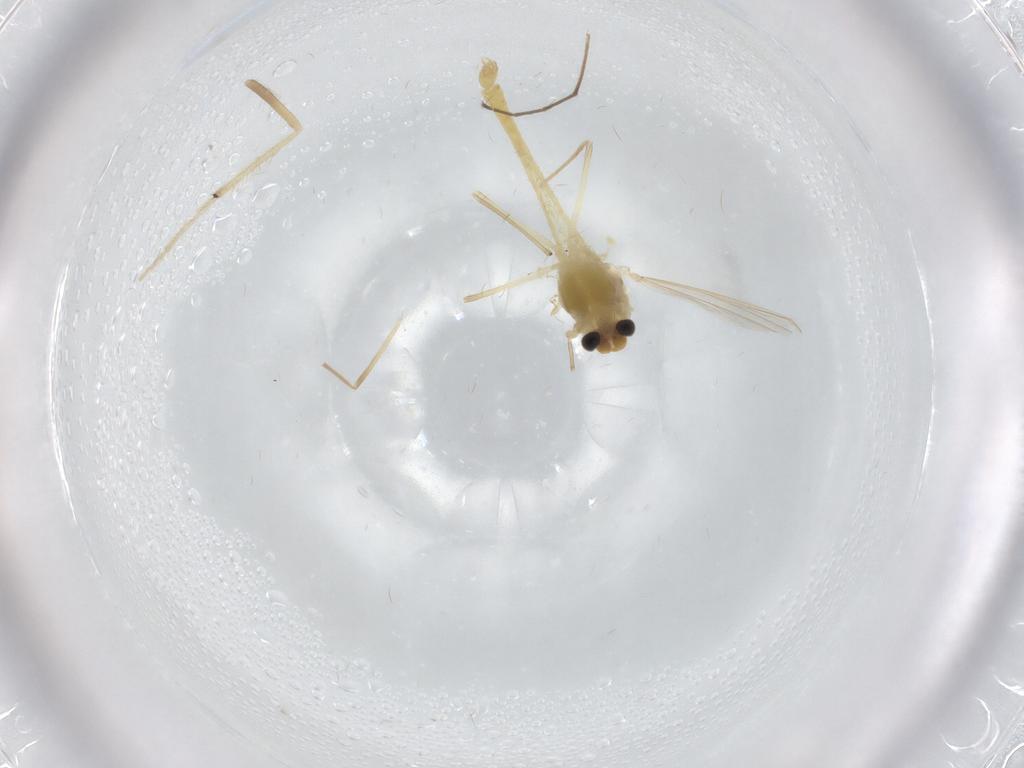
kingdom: Animalia
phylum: Arthropoda
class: Insecta
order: Diptera
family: Chironomidae
